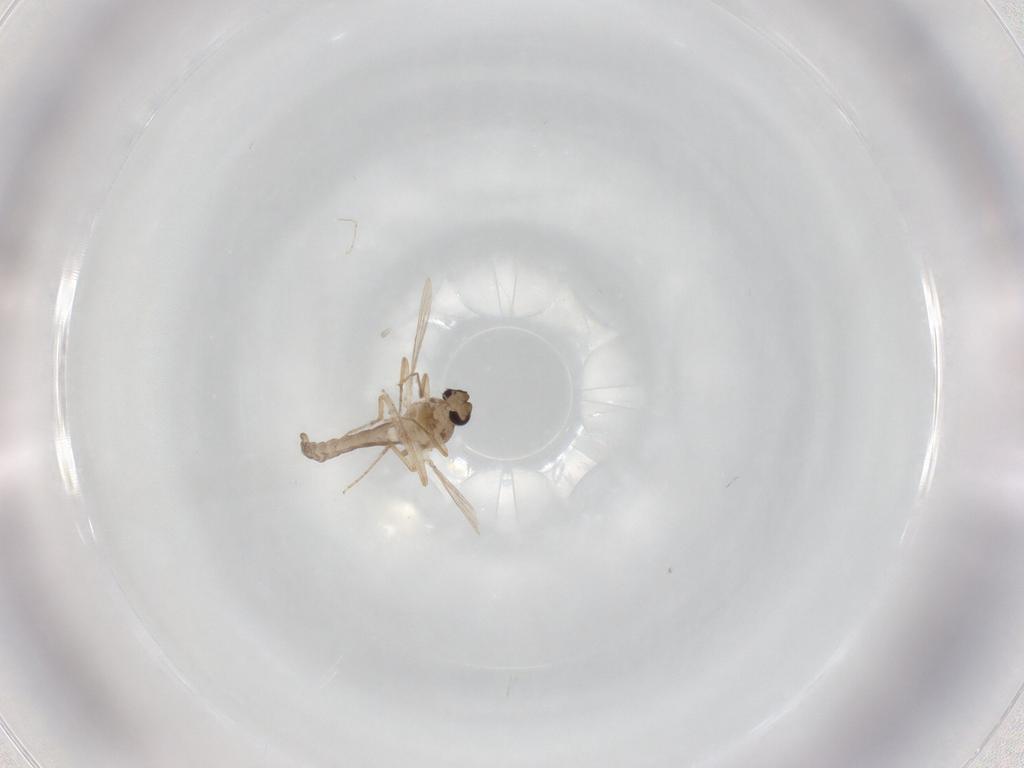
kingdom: Animalia
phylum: Arthropoda
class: Insecta
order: Diptera
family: Ceratopogonidae
